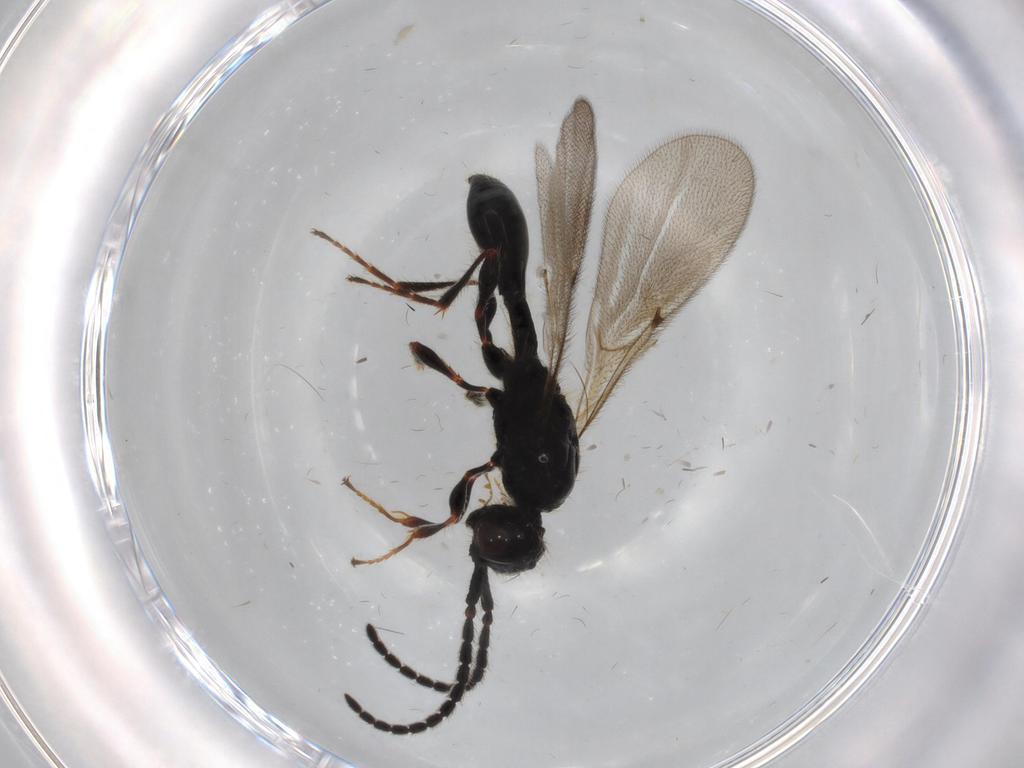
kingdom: Animalia
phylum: Arthropoda
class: Insecta
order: Hymenoptera
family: Diapriidae
